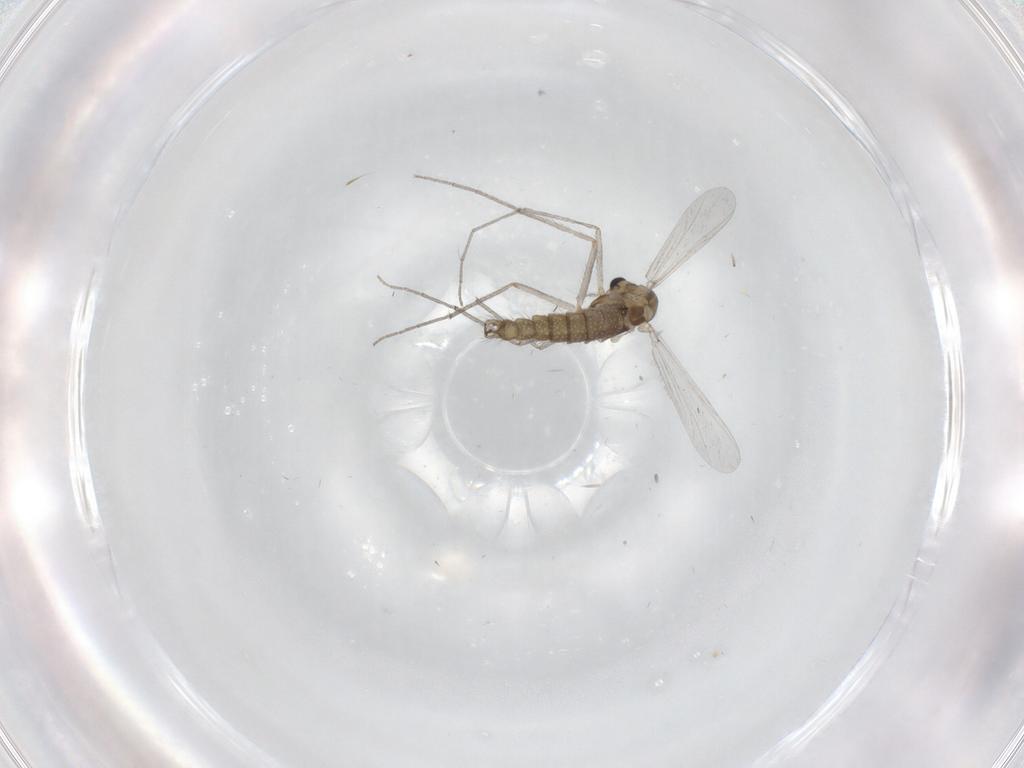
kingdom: Animalia
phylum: Arthropoda
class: Insecta
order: Diptera
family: Chironomidae
